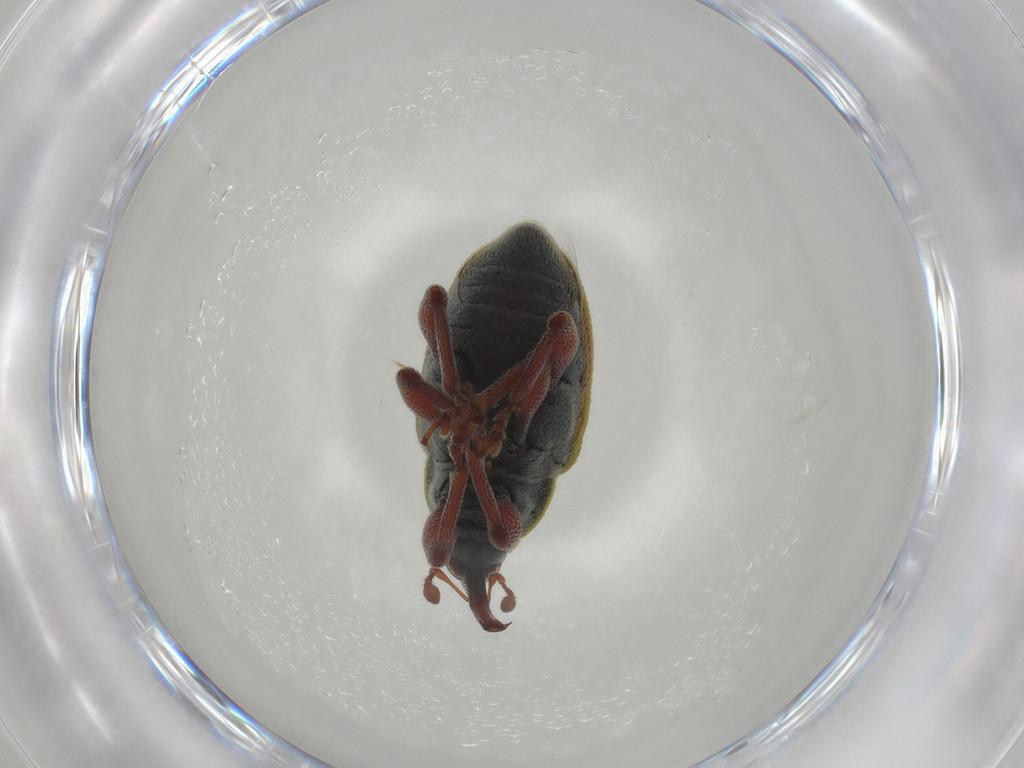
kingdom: Animalia
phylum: Arthropoda
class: Insecta
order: Coleoptera
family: Curculionidae
